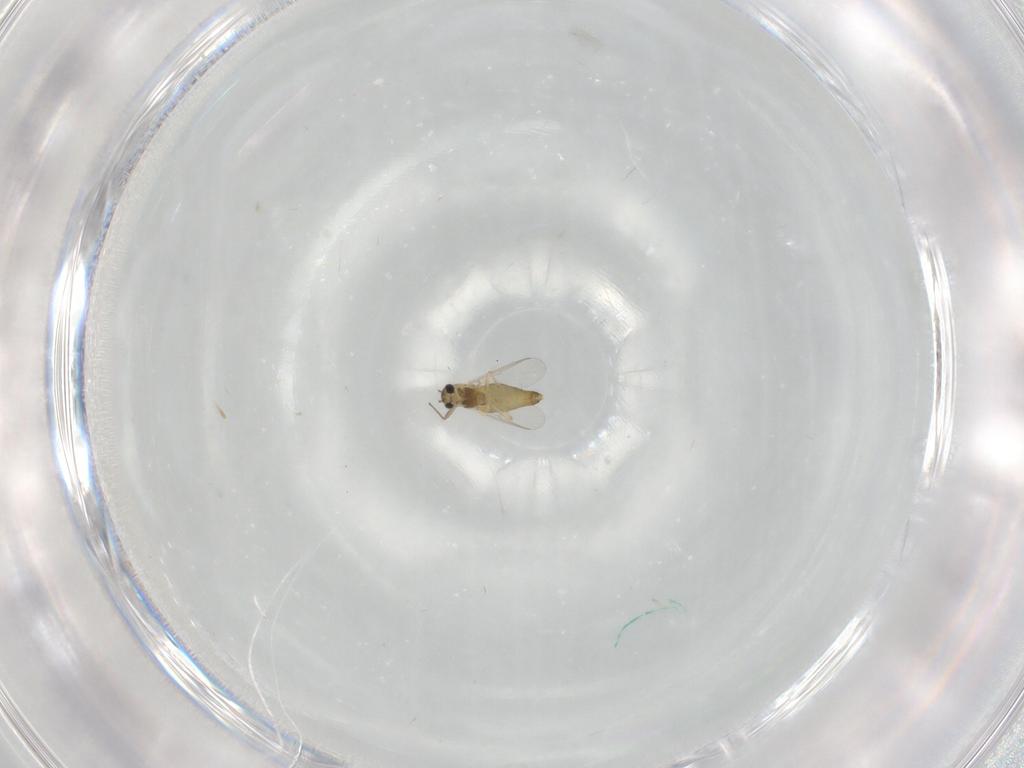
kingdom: Animalia
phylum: Arthropoda
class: Insecta
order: Diptera
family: Chironomidae
